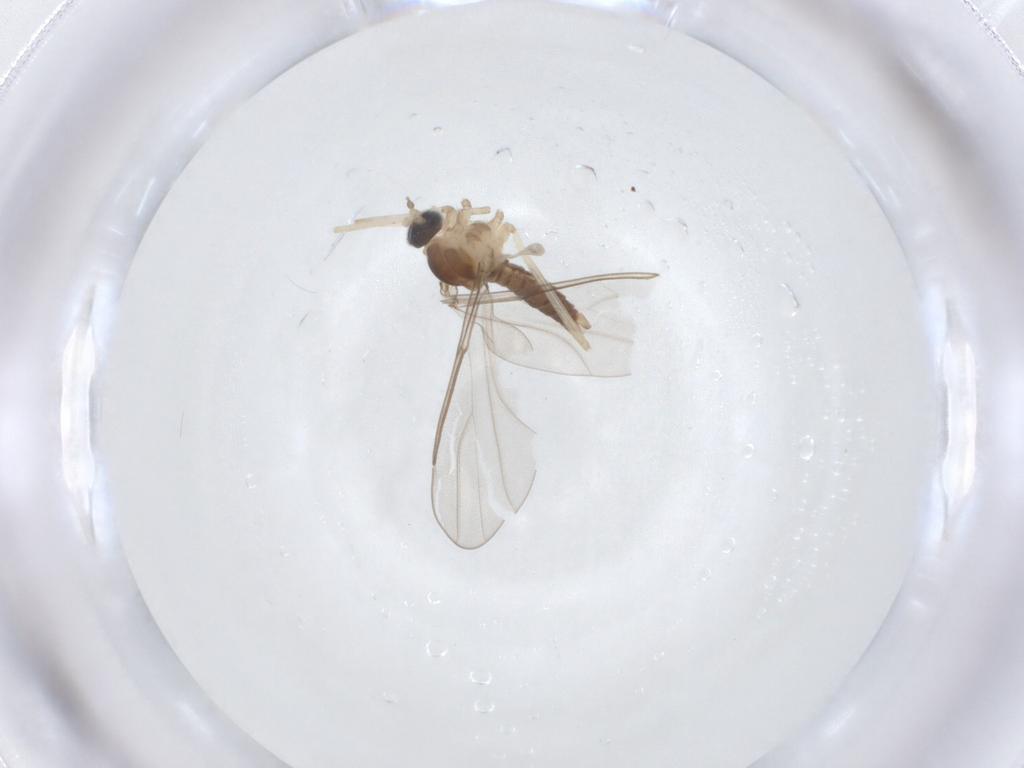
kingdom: Animalia
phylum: Arthropoda
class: Insecta
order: Diptera
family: Cecidomyiidae
